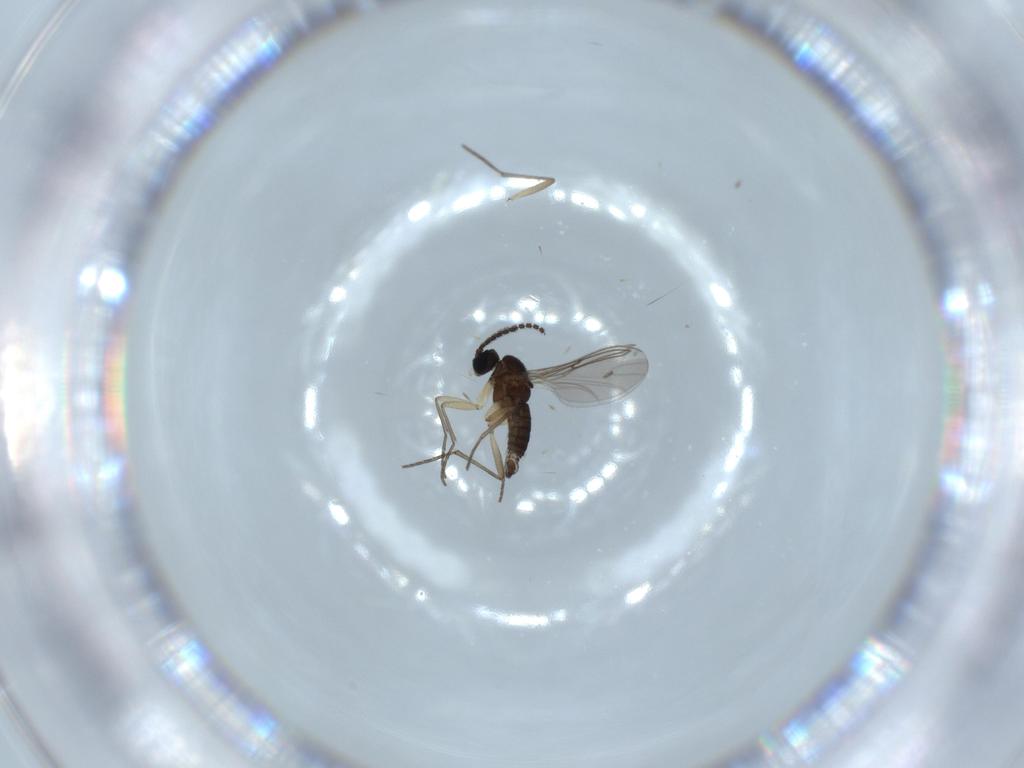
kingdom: Animalia
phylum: Arthropoda
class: Insecta
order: Diptera
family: Sciaridae
